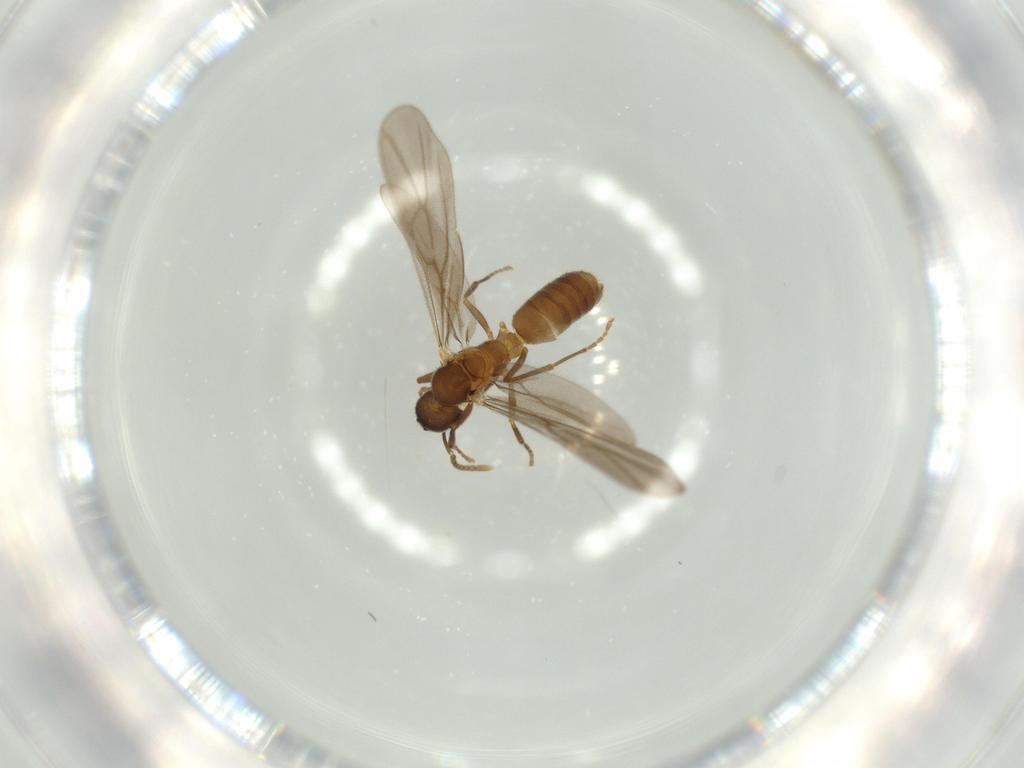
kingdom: Animalia
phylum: Arthropoda
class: Insecta
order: Hymenoptera
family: Formicidae
